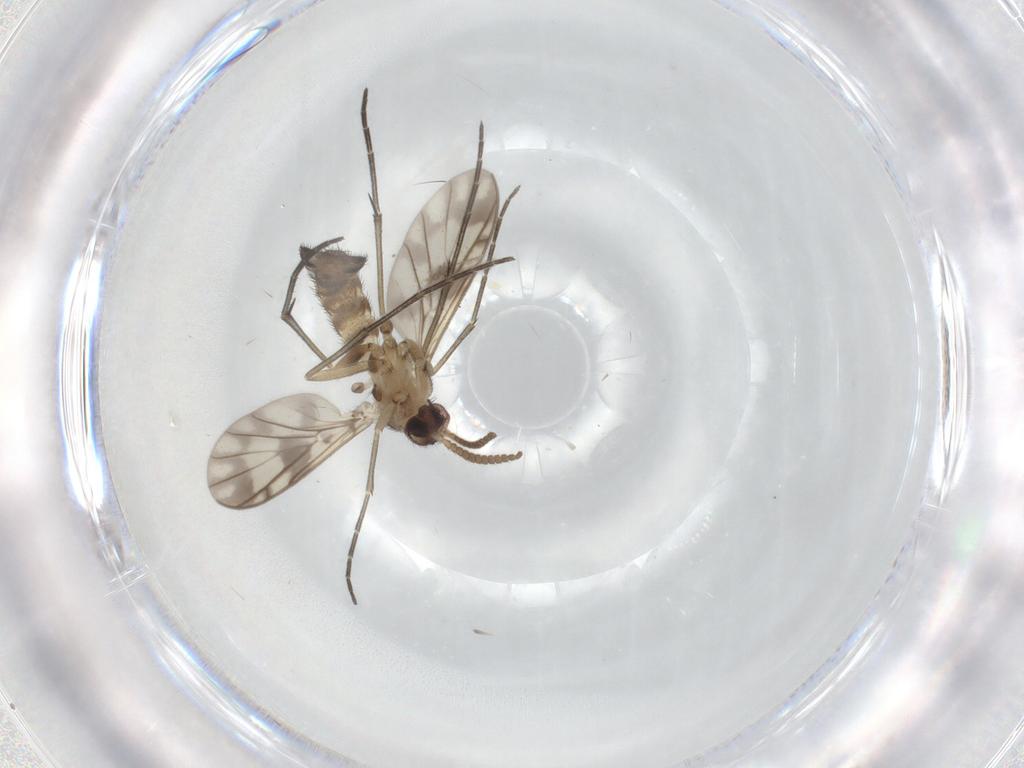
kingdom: Animalia
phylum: Arthropoda
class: Insecta
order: Diptera
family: Keroplatidae
